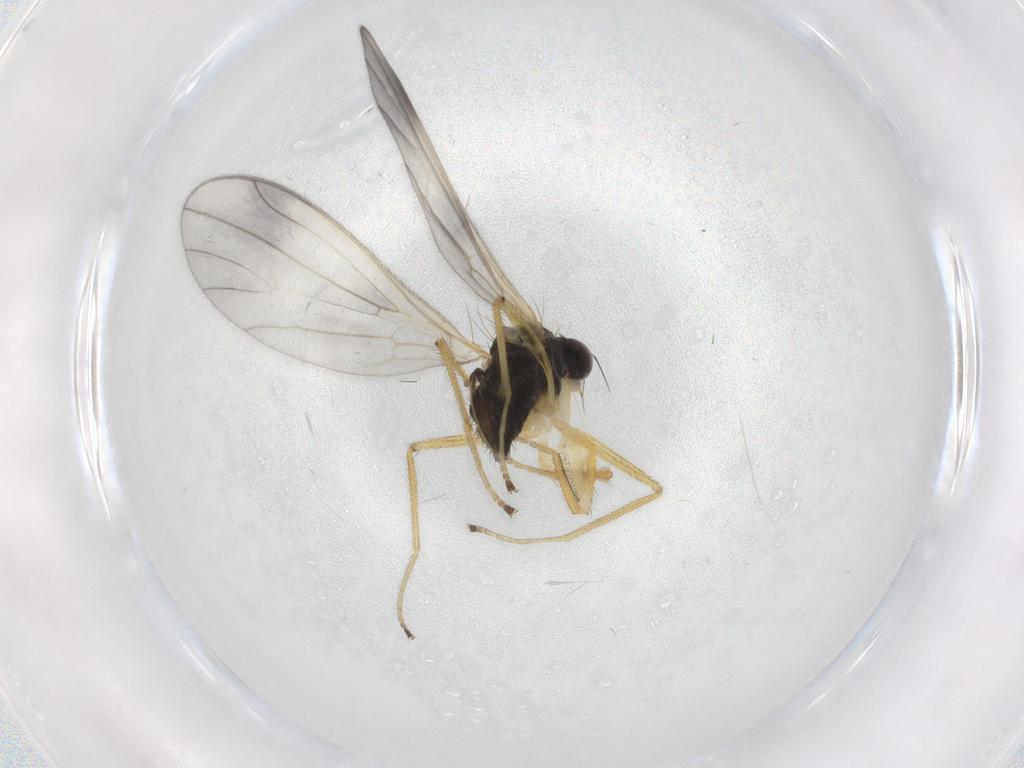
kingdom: Animalia
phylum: Arthropoda
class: Insecta
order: Diptera
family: Empididae
